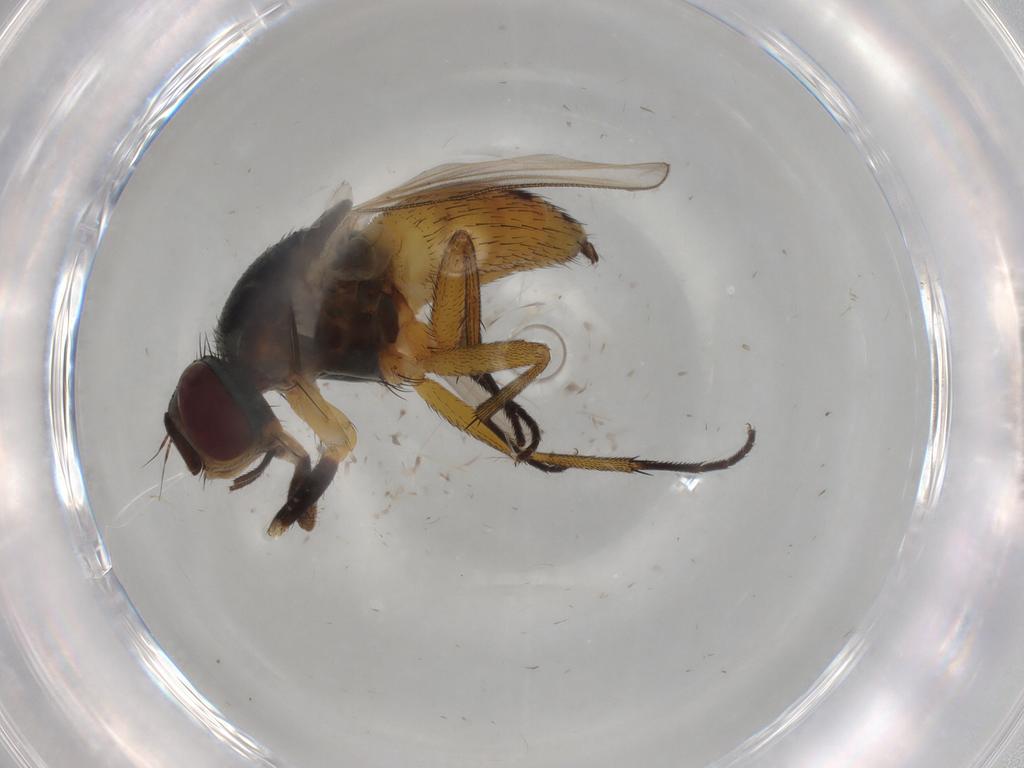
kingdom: Animalia
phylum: Arthropoda
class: Insecta
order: Diptera
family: Muscidae
